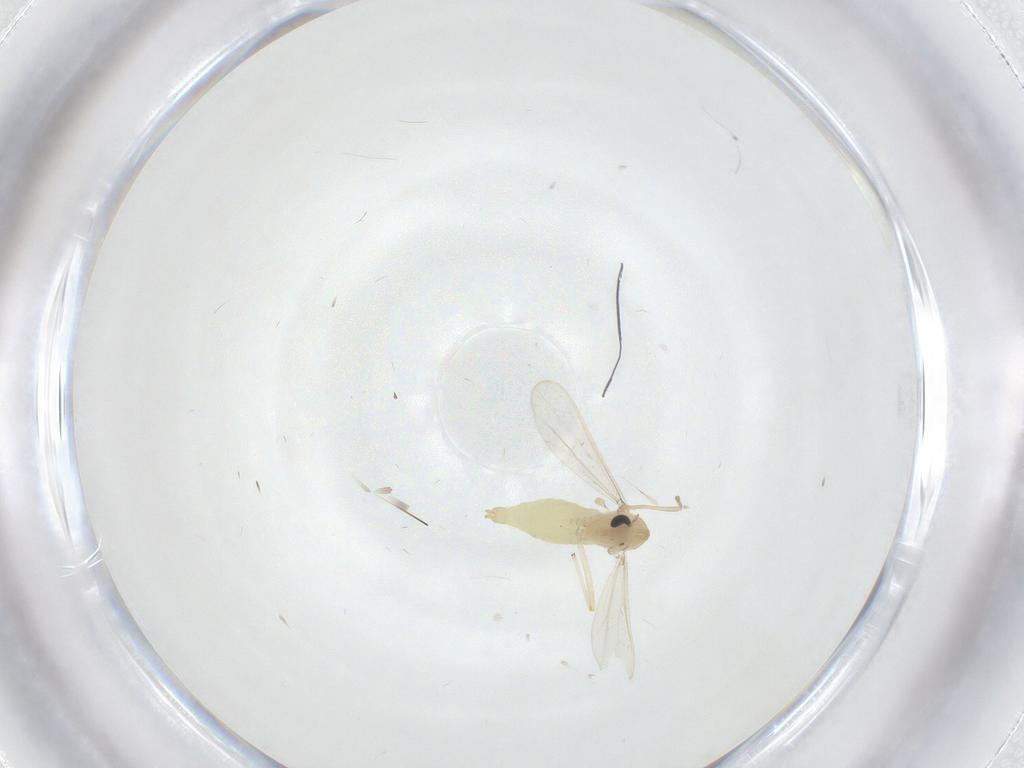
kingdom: Animalia
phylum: Arthropoda
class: Insecta
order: Diptera
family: Chironomidae
